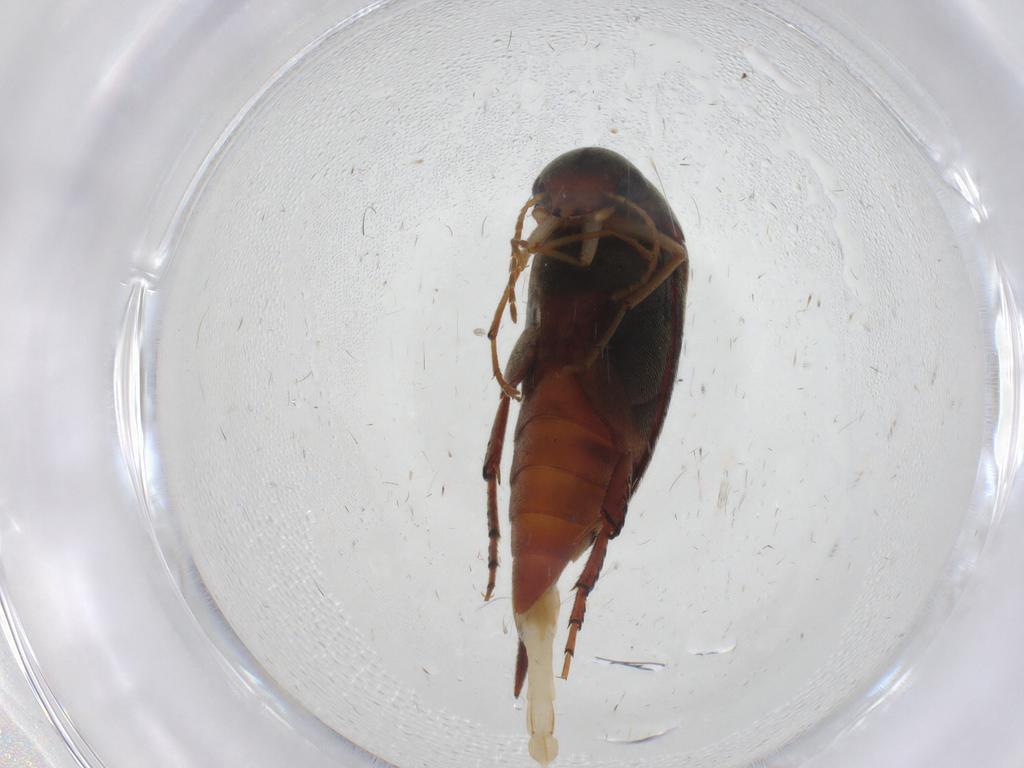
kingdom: Animalia
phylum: Arthropoda
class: Insecta
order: Coleoptera
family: Mordellidae
